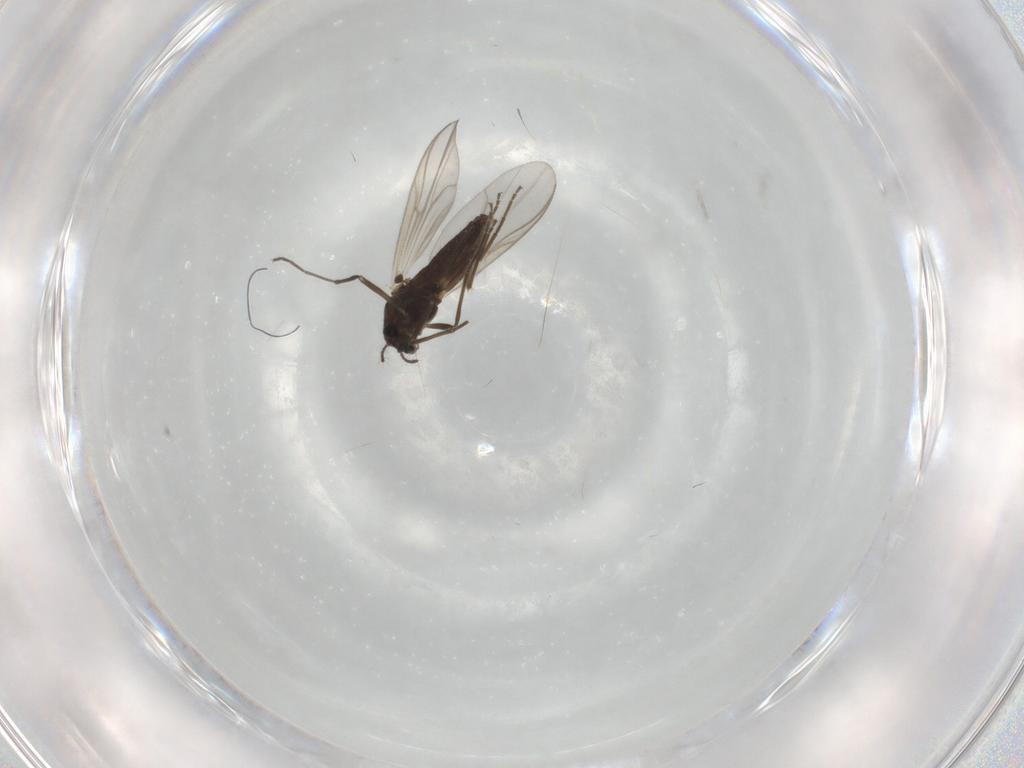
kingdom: Animalia
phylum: Arthropoda
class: Insecta
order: Diptera
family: Chironomidae
